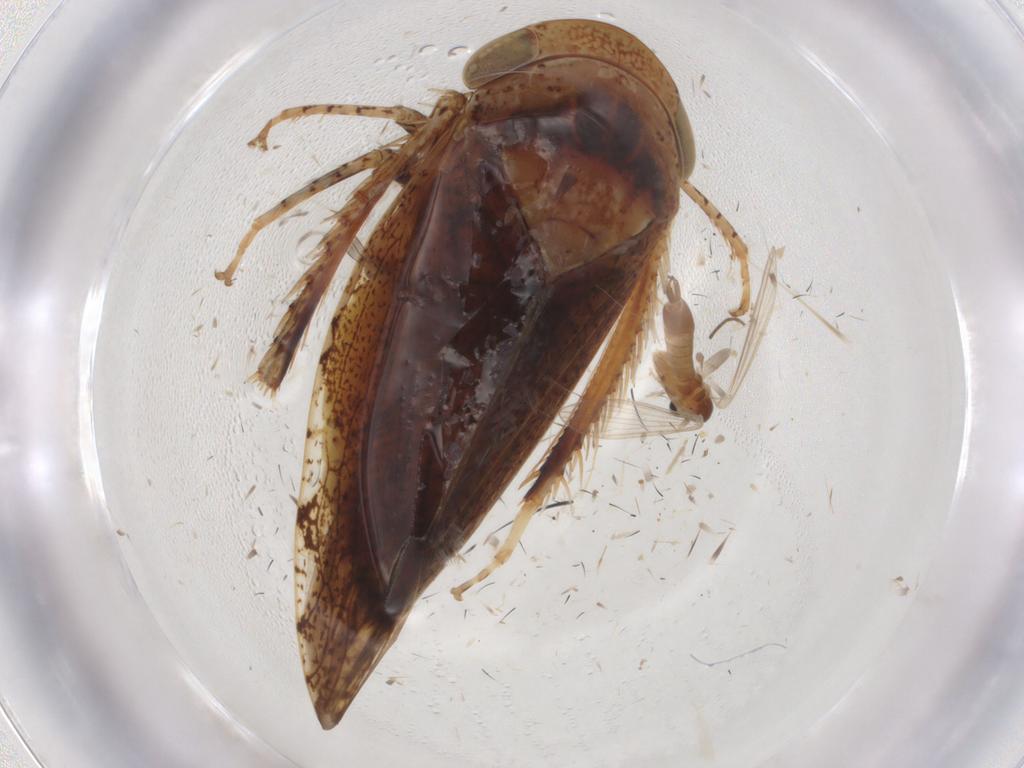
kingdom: Animalia
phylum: Arthropoda
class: Insecta
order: Hemiptera
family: Cicadellidae
